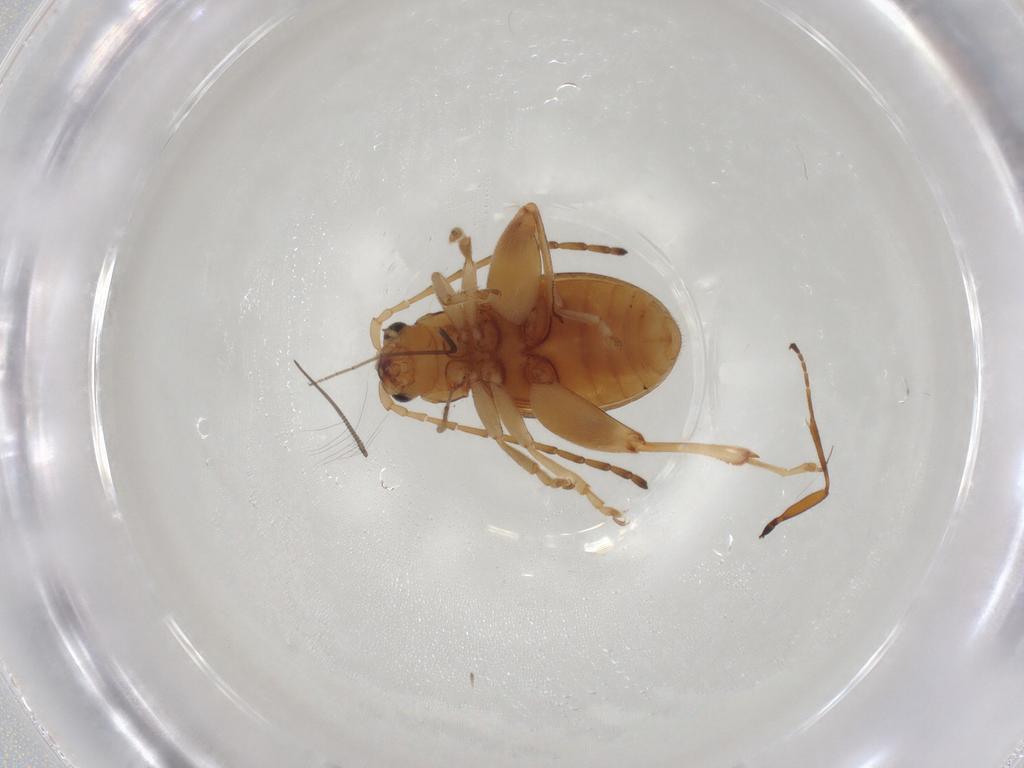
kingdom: Animalia
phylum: Arthropoda
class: Insecta
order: Coleoptera
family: Chrysomelidae
